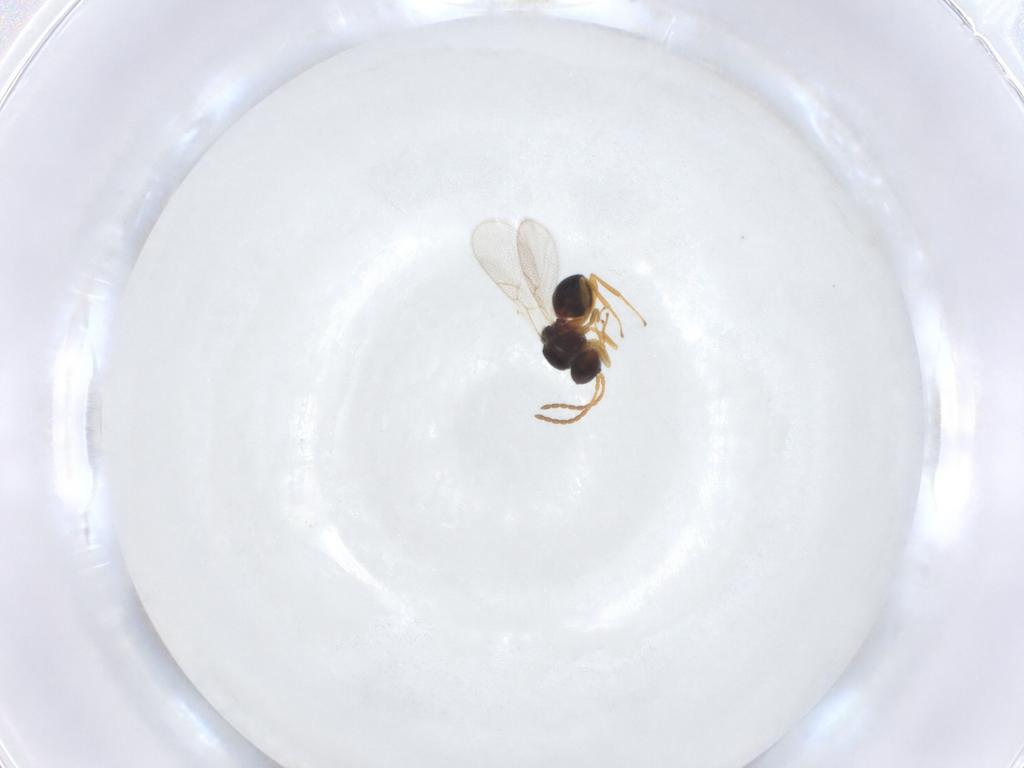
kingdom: Animalia
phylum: Arthropoda
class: Insecta
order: Hymenoptera
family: Figitidae
